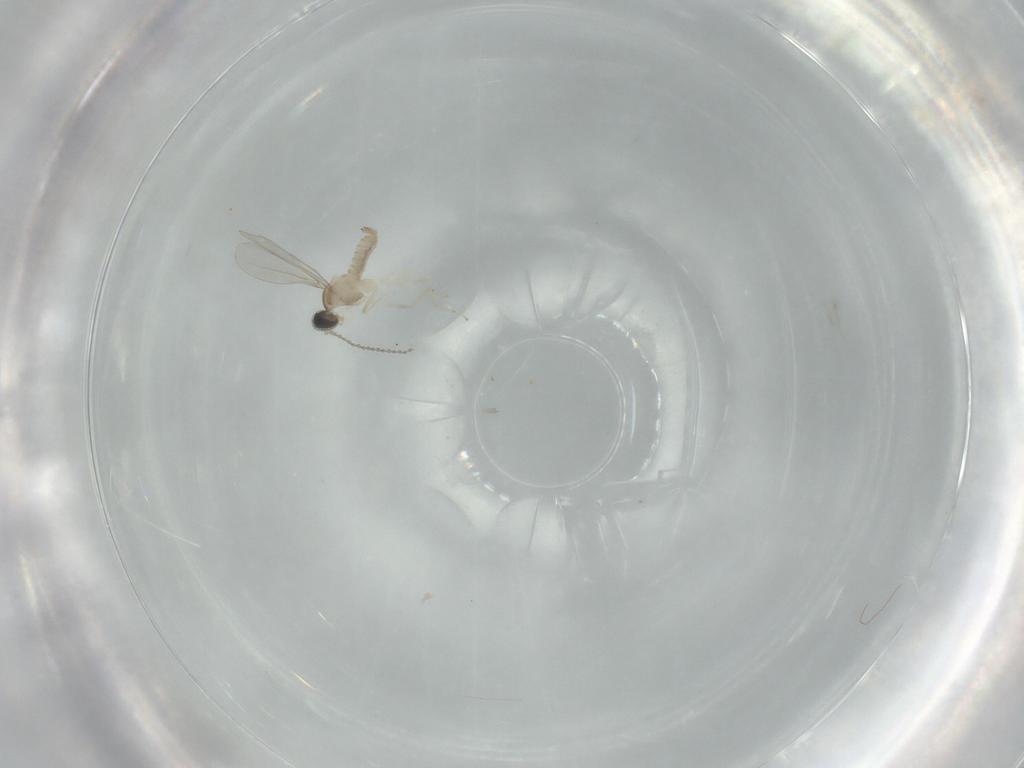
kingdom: Animalia
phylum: Arthropoda
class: Insecta
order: Diptera
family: Cecidomyiidae
